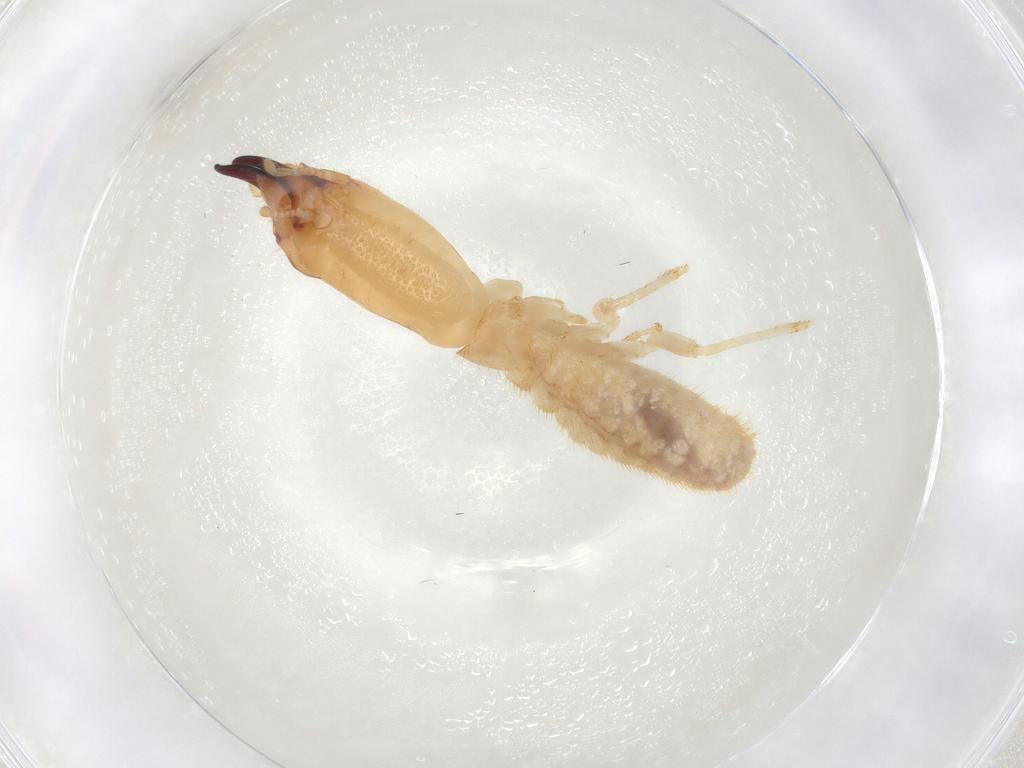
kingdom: Animalia
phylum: Arthropoda
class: Insecta
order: Blattodea
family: Rhinotermitidae
